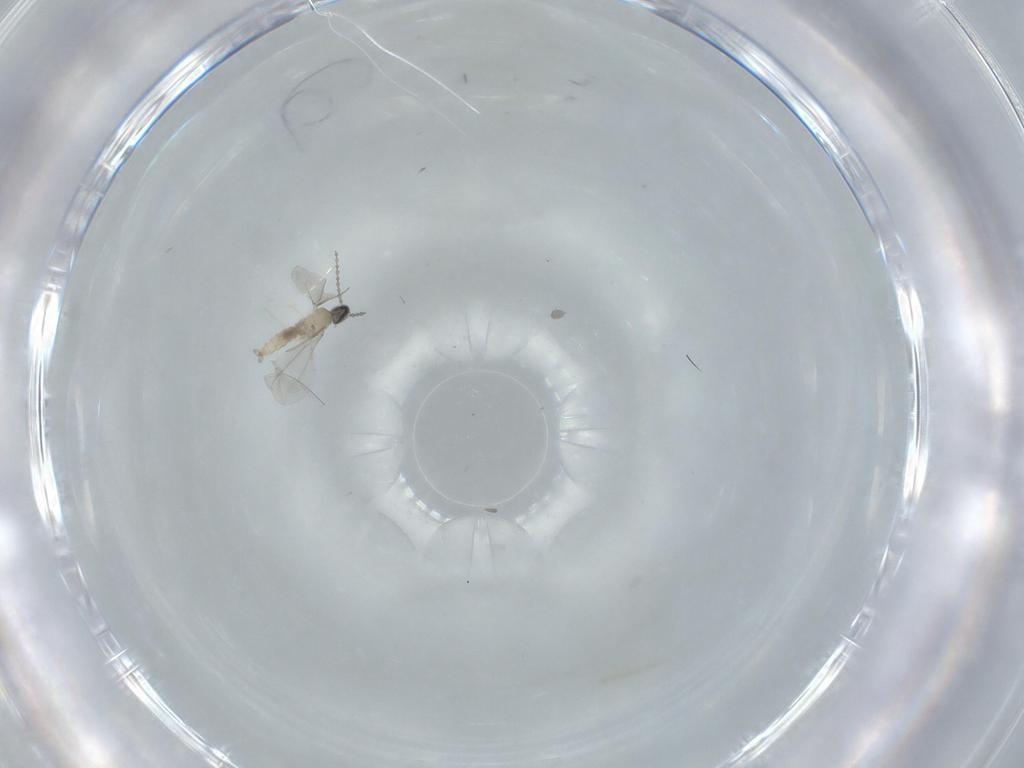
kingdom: Animalia
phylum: Arthropoda
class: Insecta
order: Diptera
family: Cecidomyiidae
